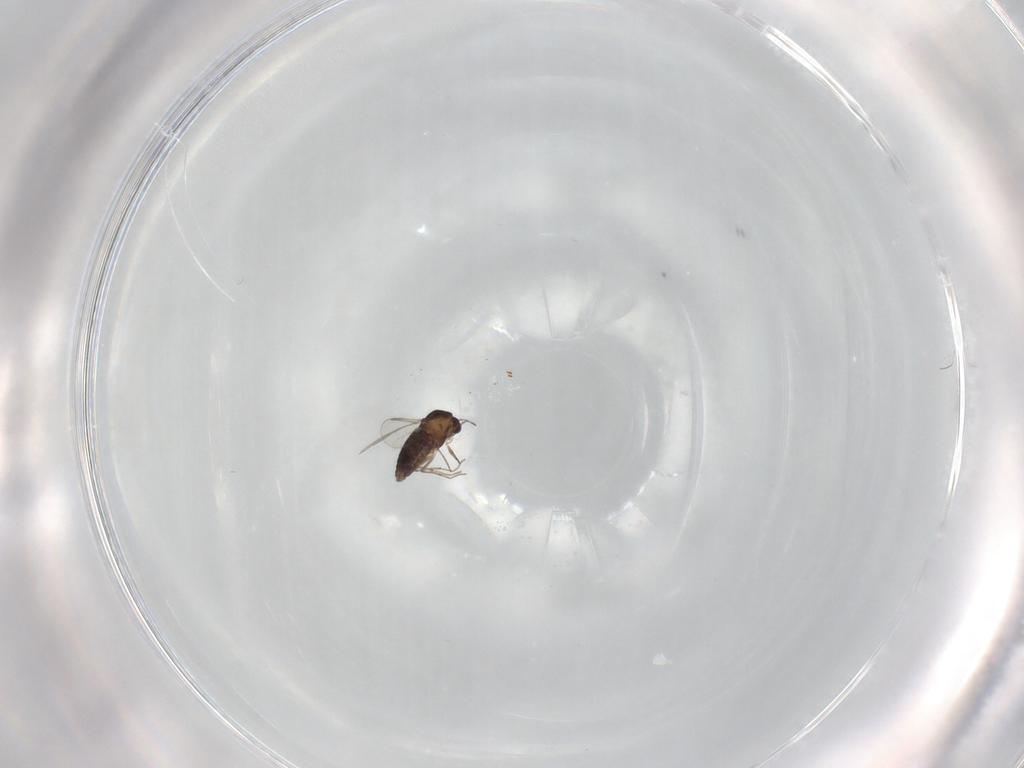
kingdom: Animalia
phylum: Arthropoda
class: Insecta
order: Diptera
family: Chironomidae
